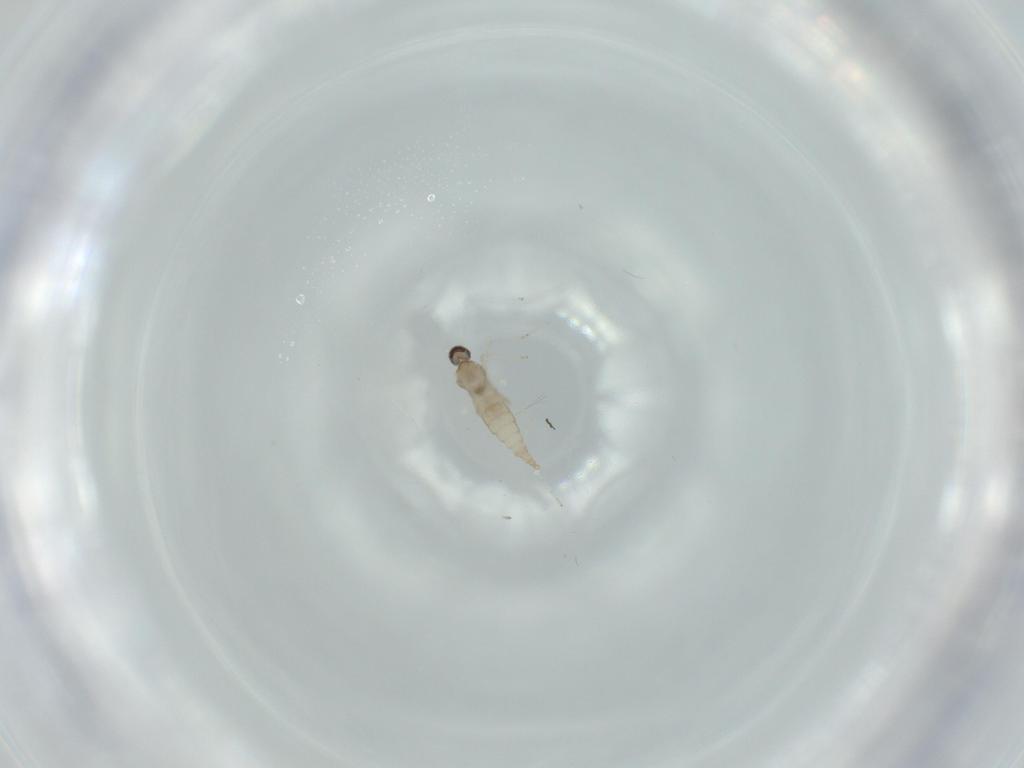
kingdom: Animalia
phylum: Arthropoda
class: Insecta
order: Diptera
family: Cecidomyiidae
